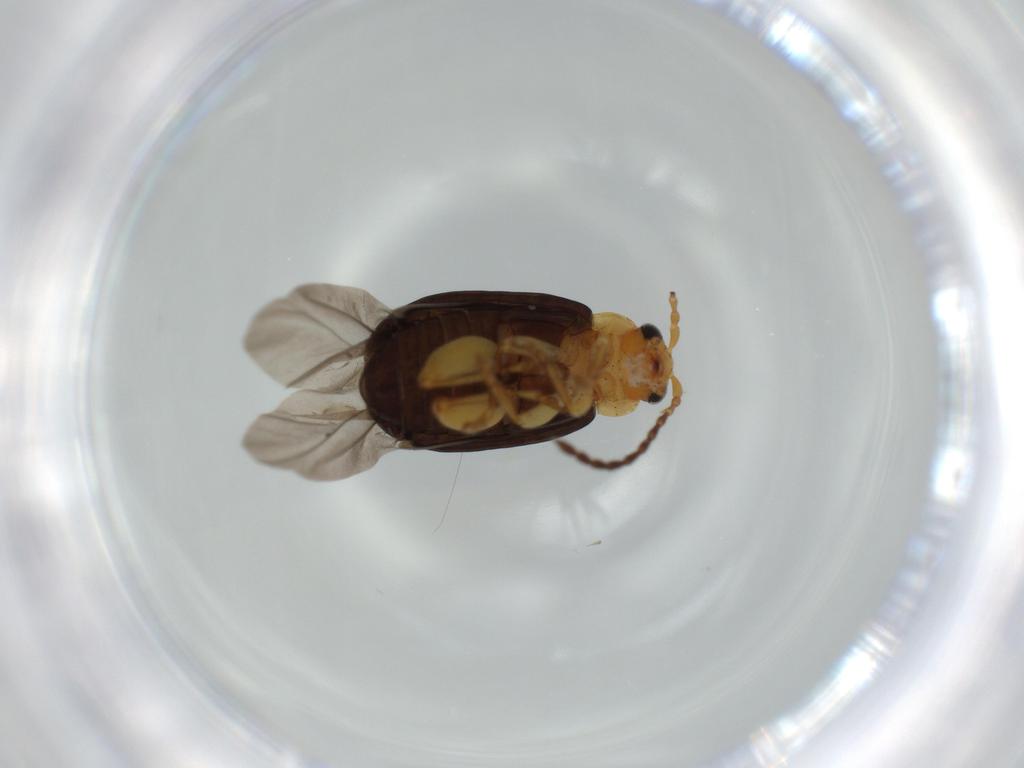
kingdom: Animalia
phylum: Arthropoda
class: Insecta
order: Coleoptera
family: Chrysomelidae
